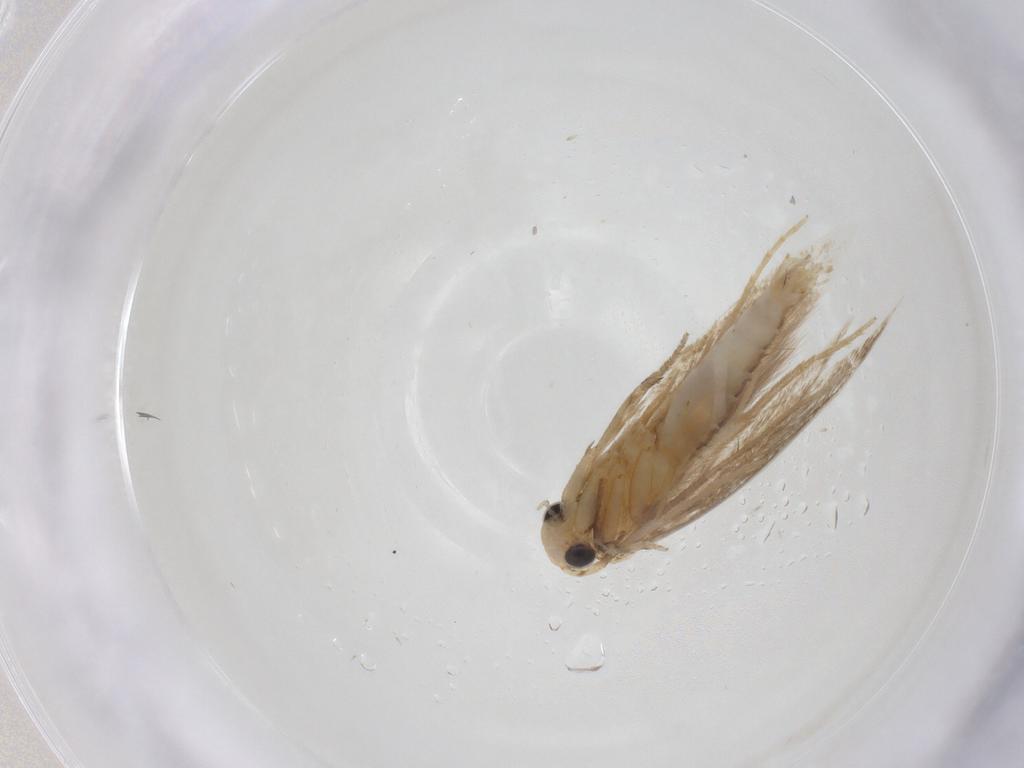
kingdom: Animalia
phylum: Arthropoda
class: Insecta
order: Lepidoptera
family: Tineidae
